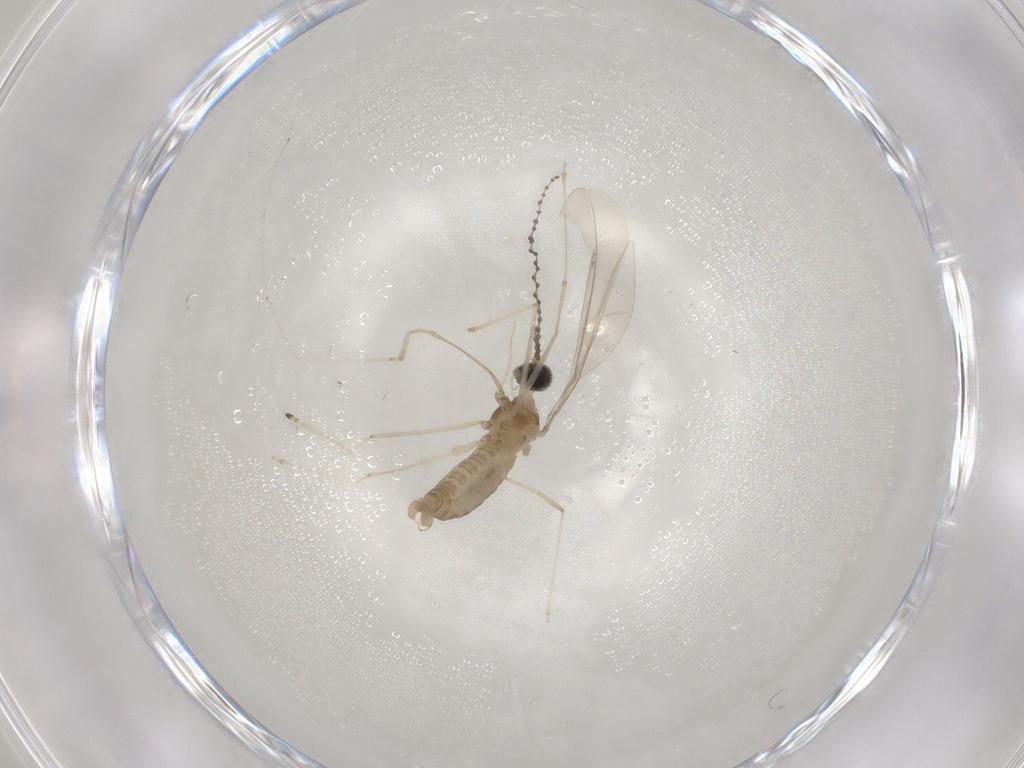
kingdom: Animalia
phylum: Arthropoda
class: Insecta
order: Diptera
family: Cecidomyiidae
